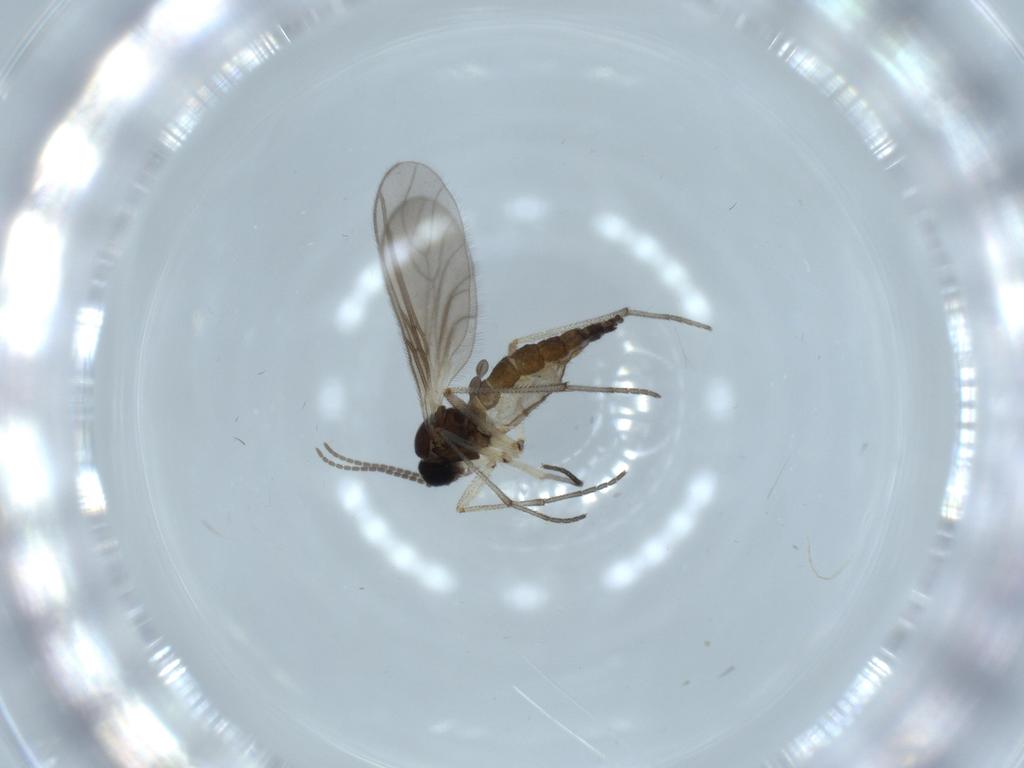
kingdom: Animalia
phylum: Arthropoda
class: Insecta
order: Diptera
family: Sciaridae
